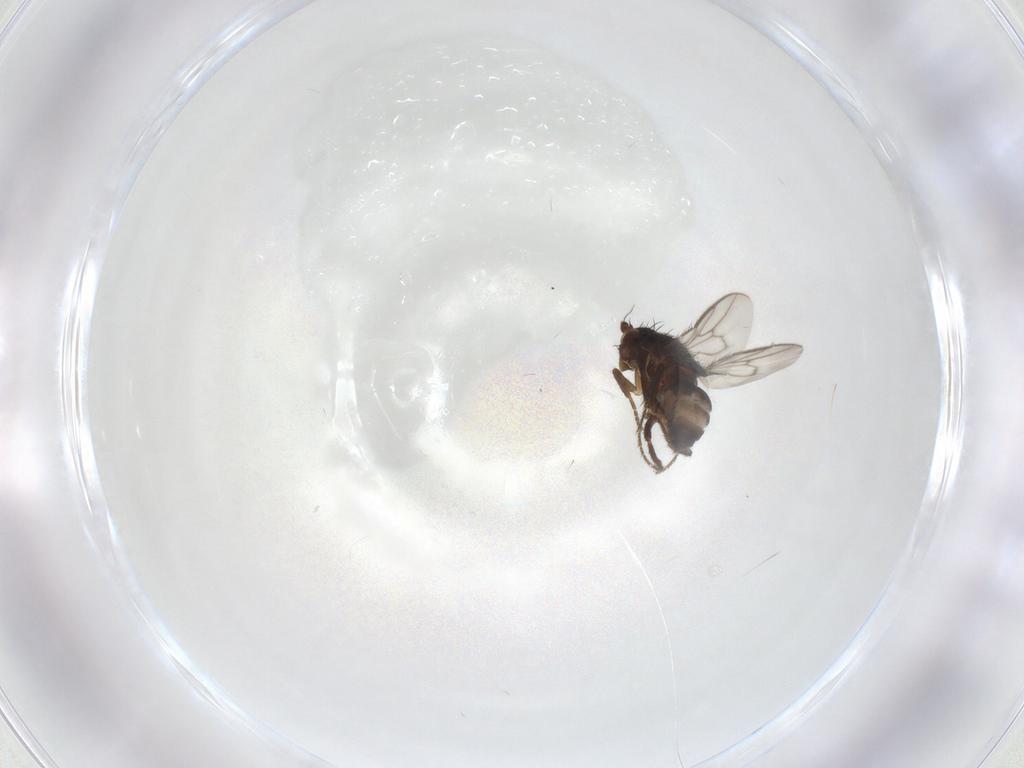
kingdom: Animalia
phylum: Arthropoda
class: Insecta
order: Diptera
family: Sphaeroceridae
